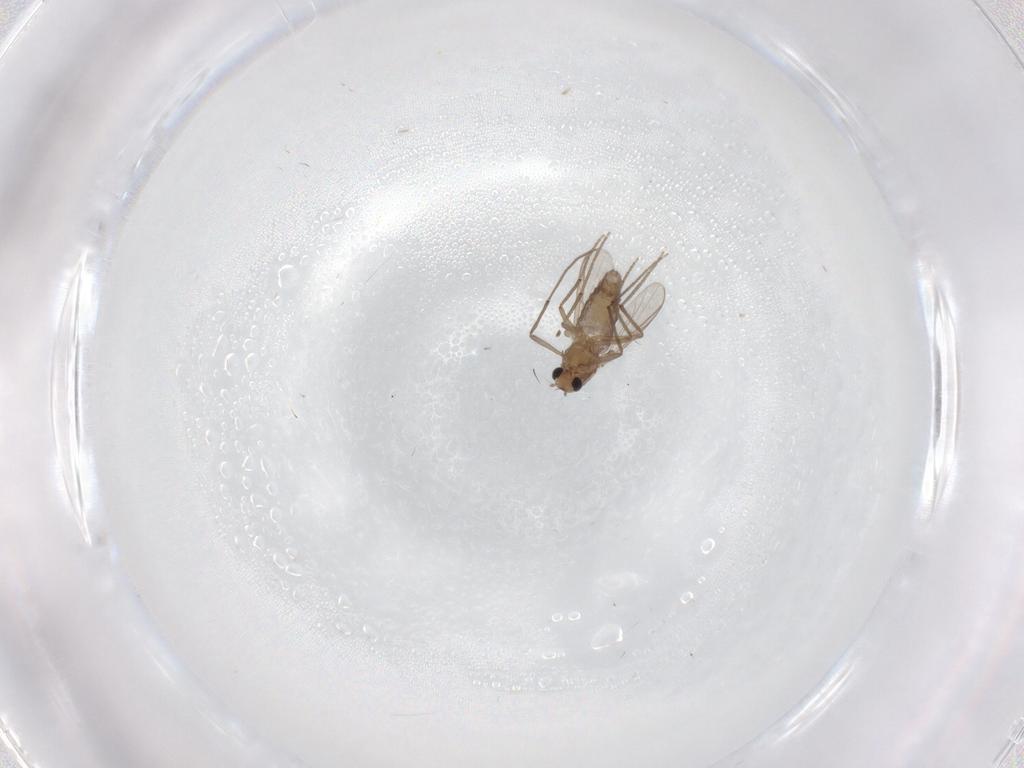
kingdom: Animalia
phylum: Arthropoda
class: Insecta
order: Diptera
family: Chironomidae
